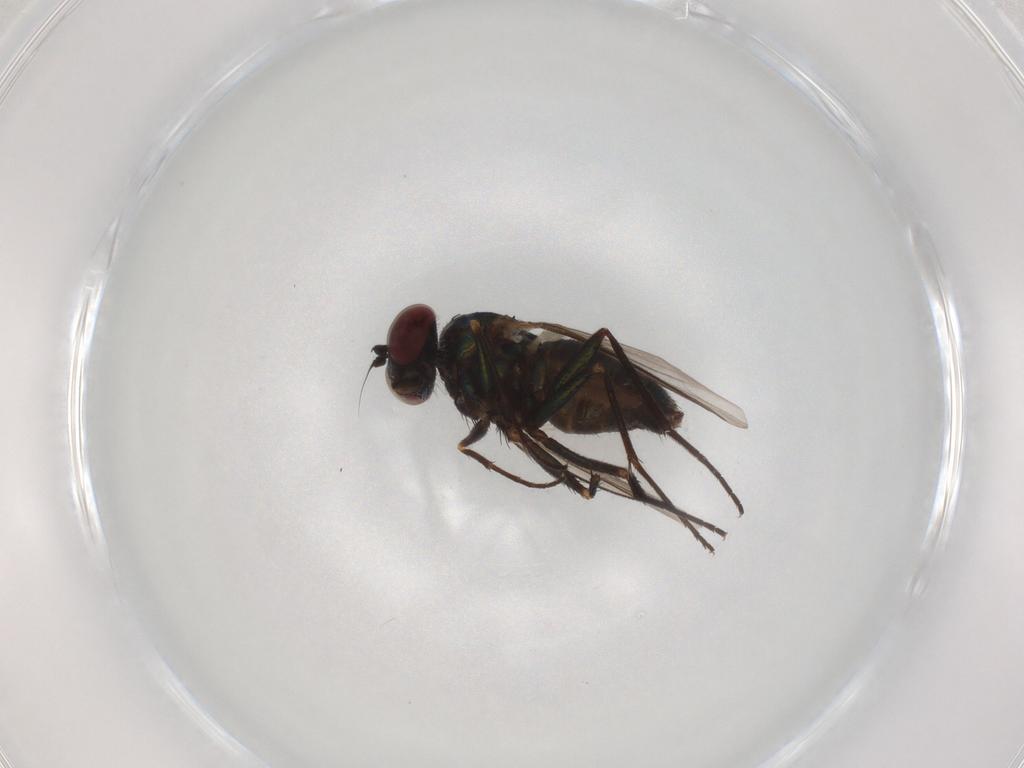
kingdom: Animalia
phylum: Arthropoda
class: Insecta
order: Diptera
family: Dolichopodidae
